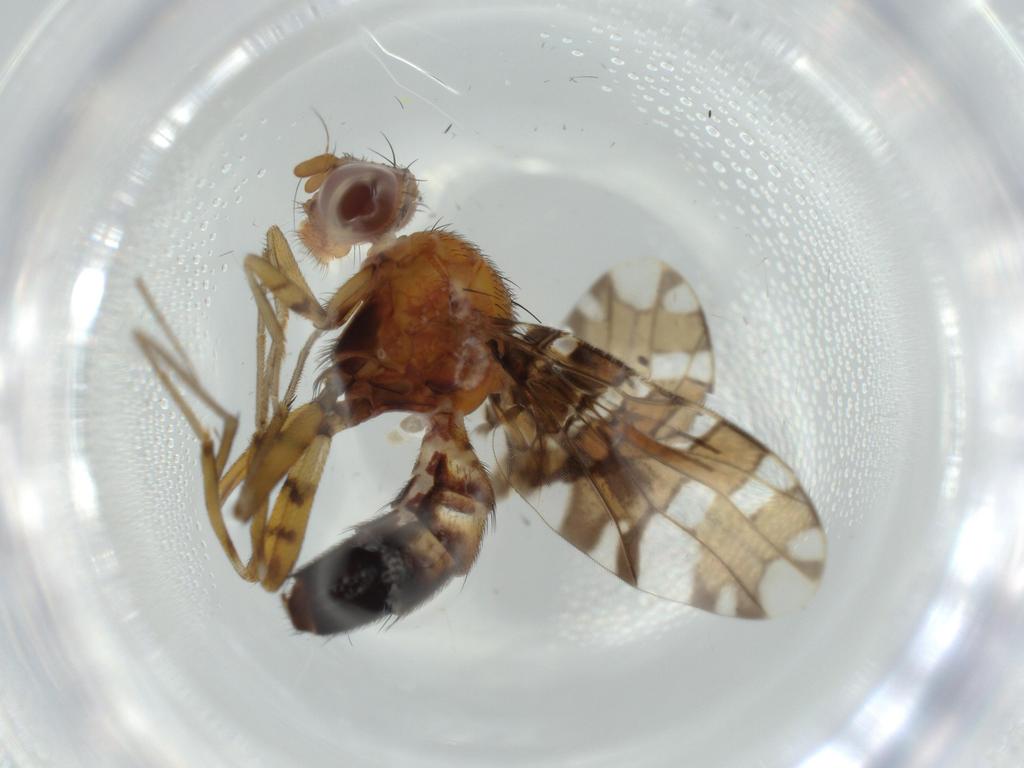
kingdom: Animalia
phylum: Arthropoda
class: Insecta
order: Diptera
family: Ulidiidae
